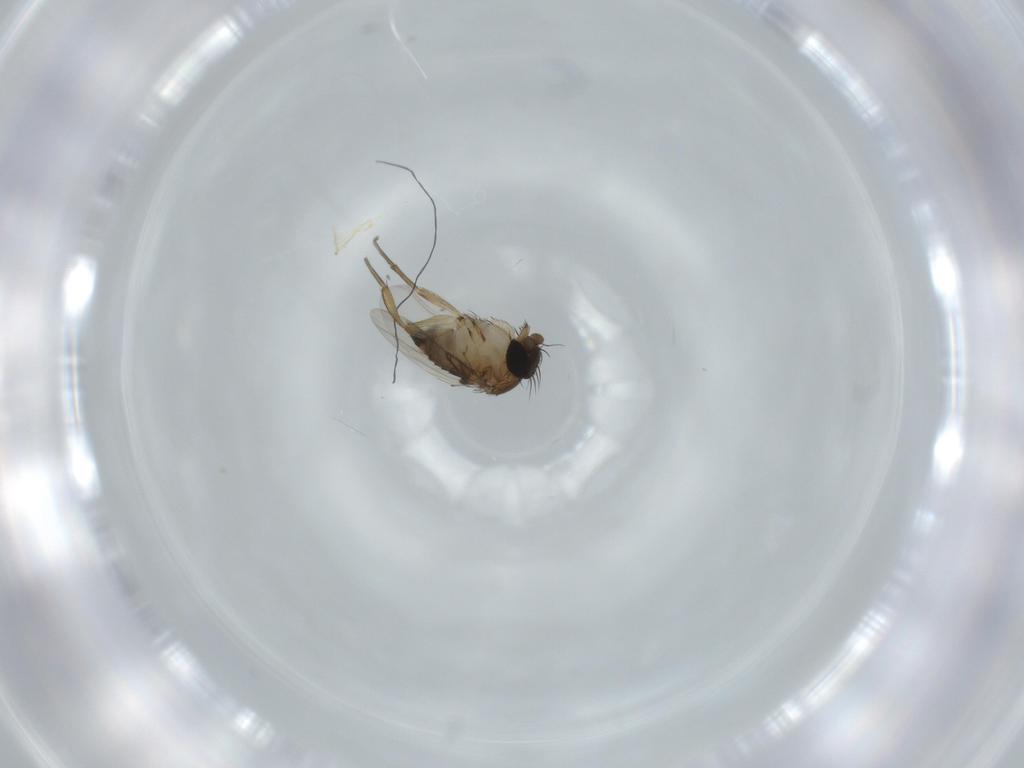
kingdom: Animalia
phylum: Arthropoda
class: Insecta
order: Diptera
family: Phoridae
